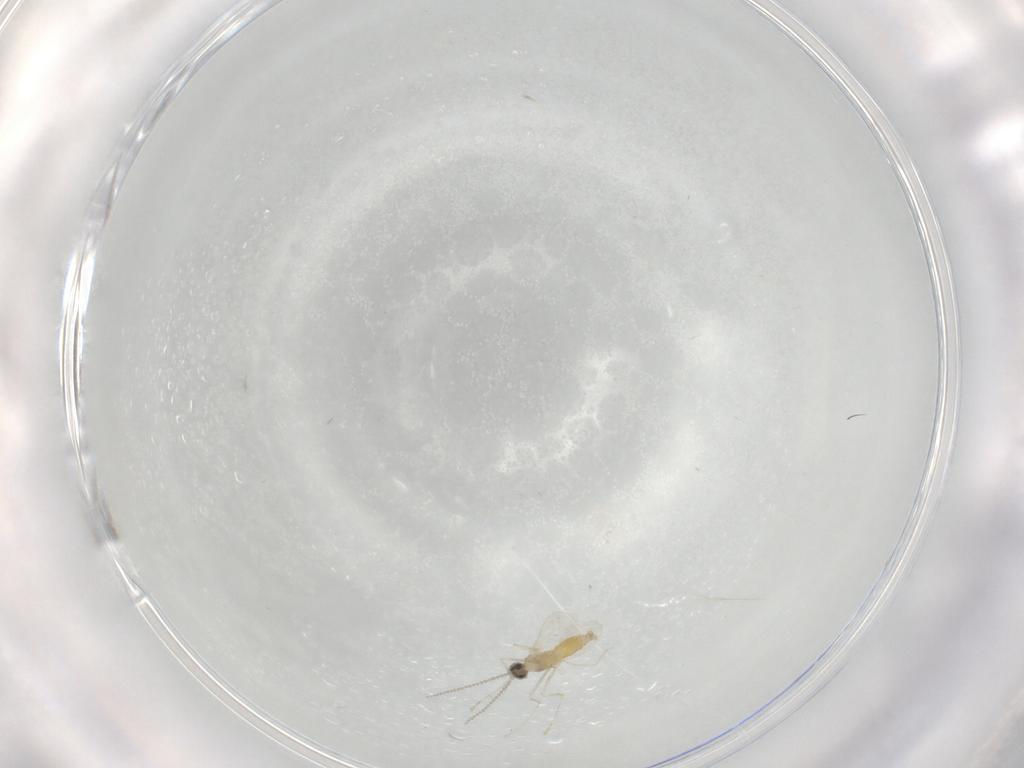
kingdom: Animalia
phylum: Arthropoda
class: Insecta
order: Diptera
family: Cecidomyiidae
